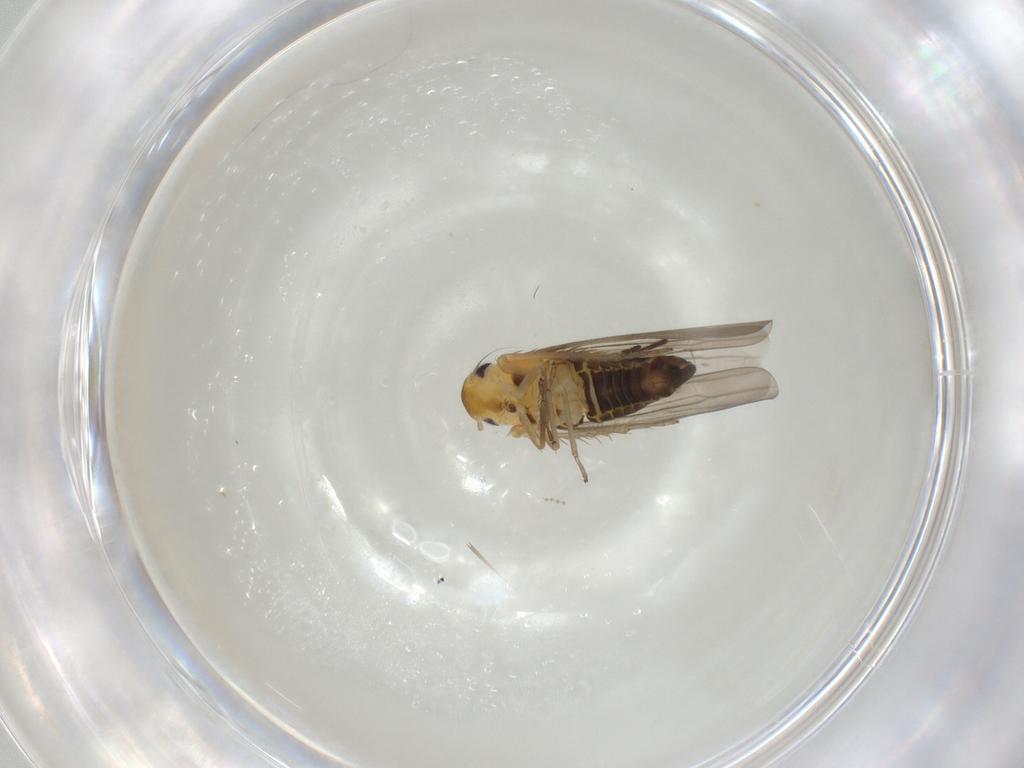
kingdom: Animalia
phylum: Arthropoda
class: Insecta
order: Hemiptera
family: Cicadellidae
